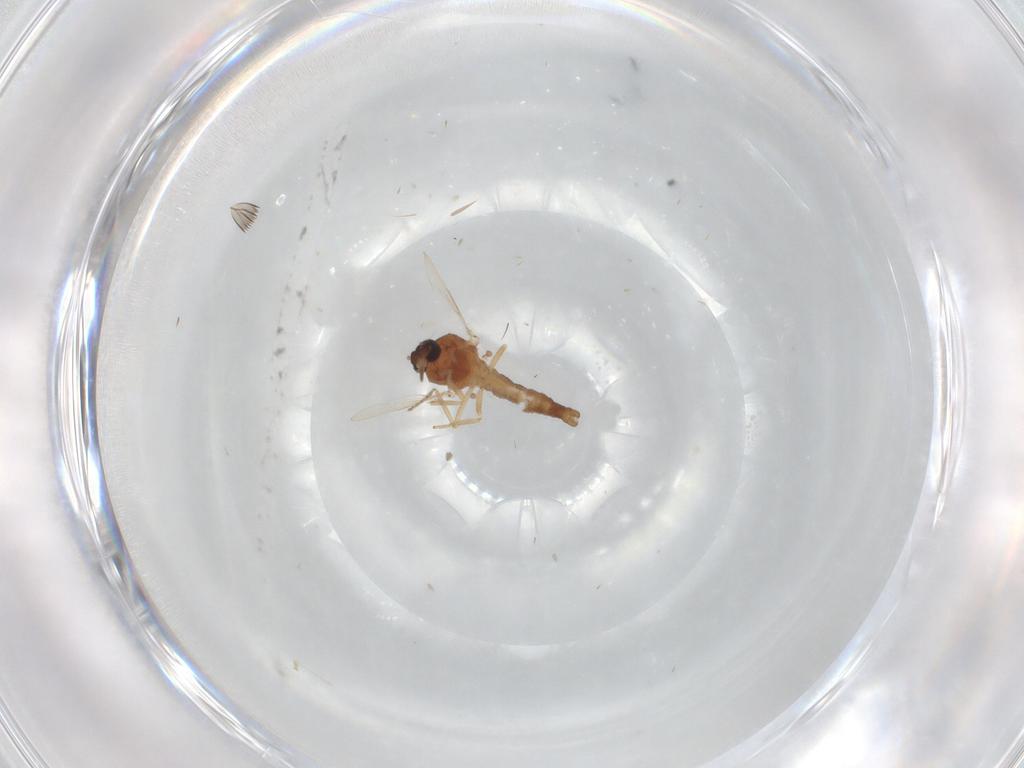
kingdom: Animalia
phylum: Arthropoda
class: Insecta
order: Diptera
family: Ceratopogonidae
